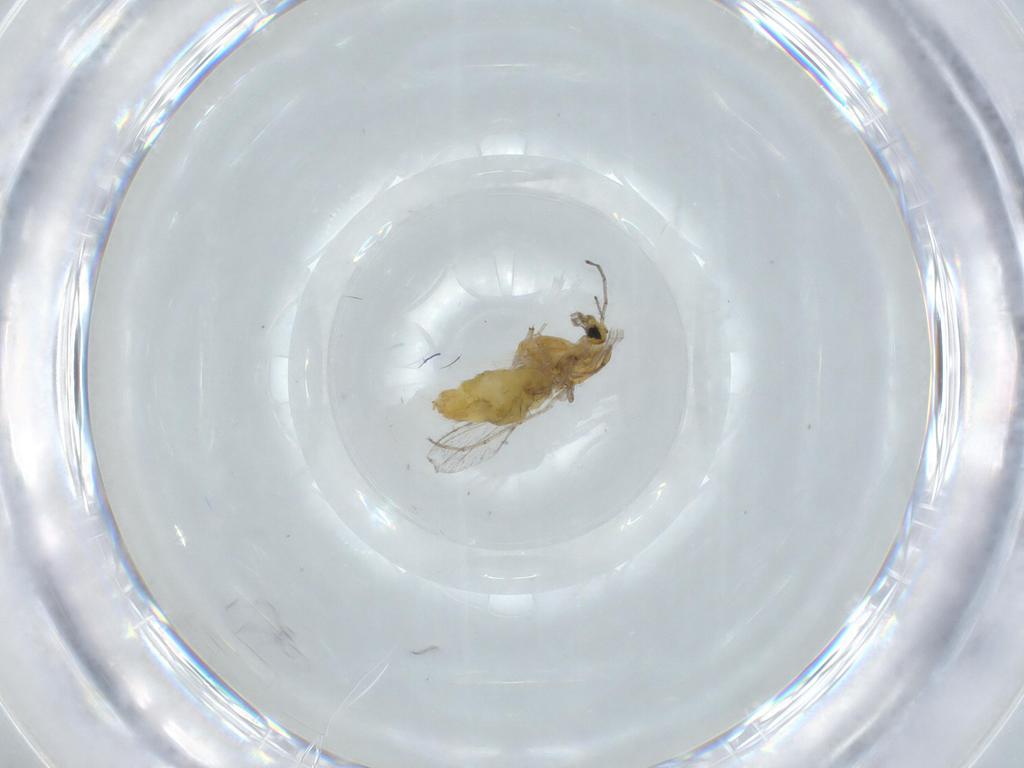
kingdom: Animalia
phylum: Arthropoda
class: Insecta
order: Diptera
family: Chironomidae
